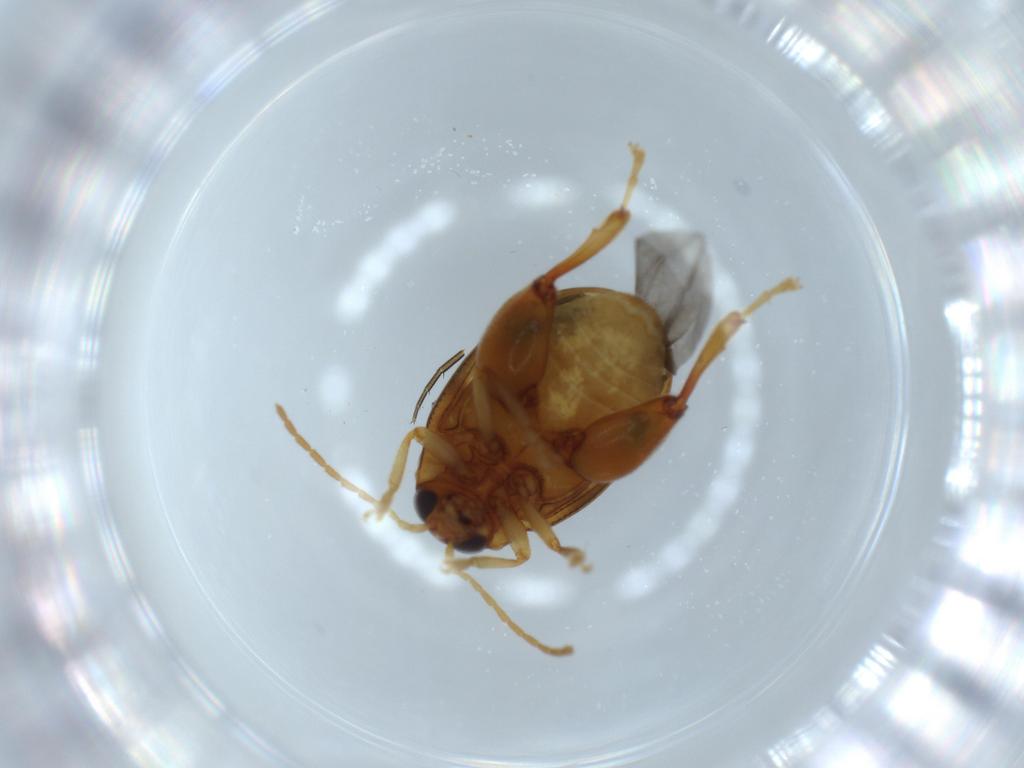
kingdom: Animalia
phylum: Arthropoda
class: Insecta
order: Coleoptera
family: Chrysomelidae
